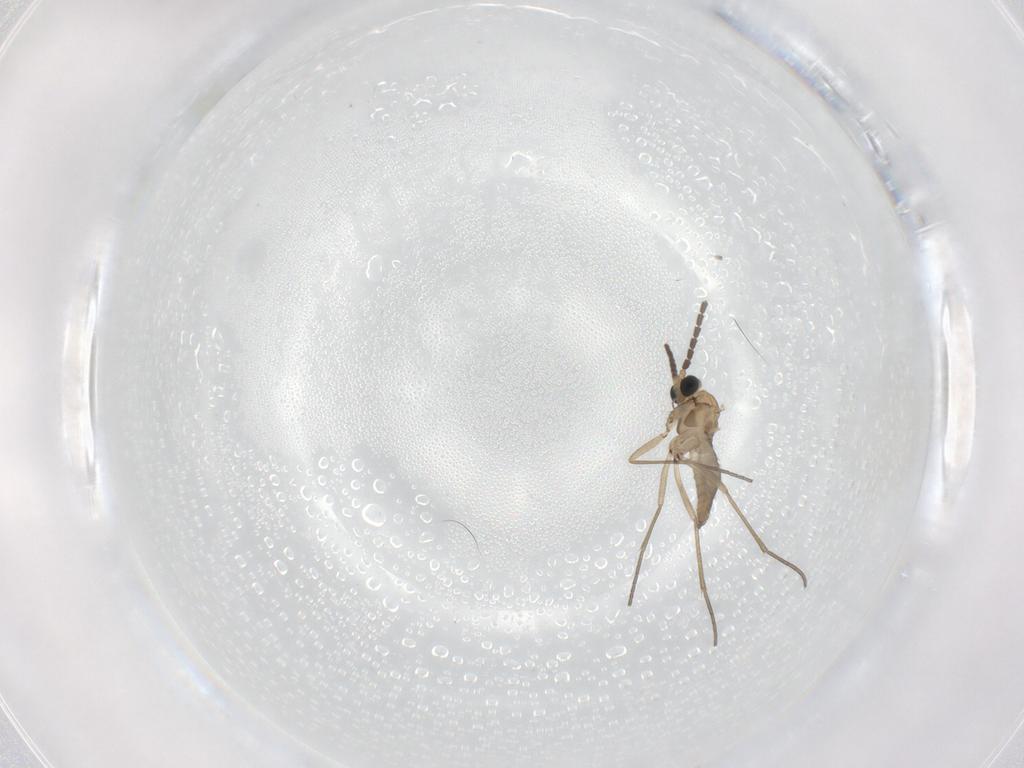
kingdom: Animalia
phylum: Arthropoda
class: Insecta
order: Diptera
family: Sciaridae
